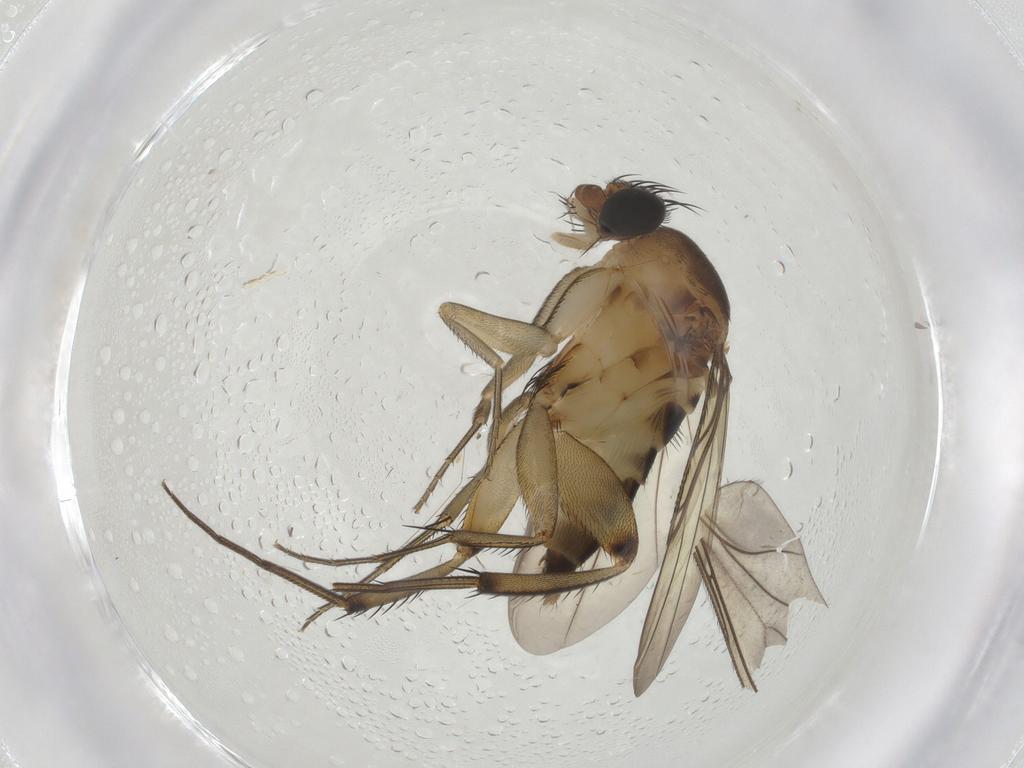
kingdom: Animalia
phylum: Arthropoda
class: Insecta
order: Diptera
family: Phoridae
